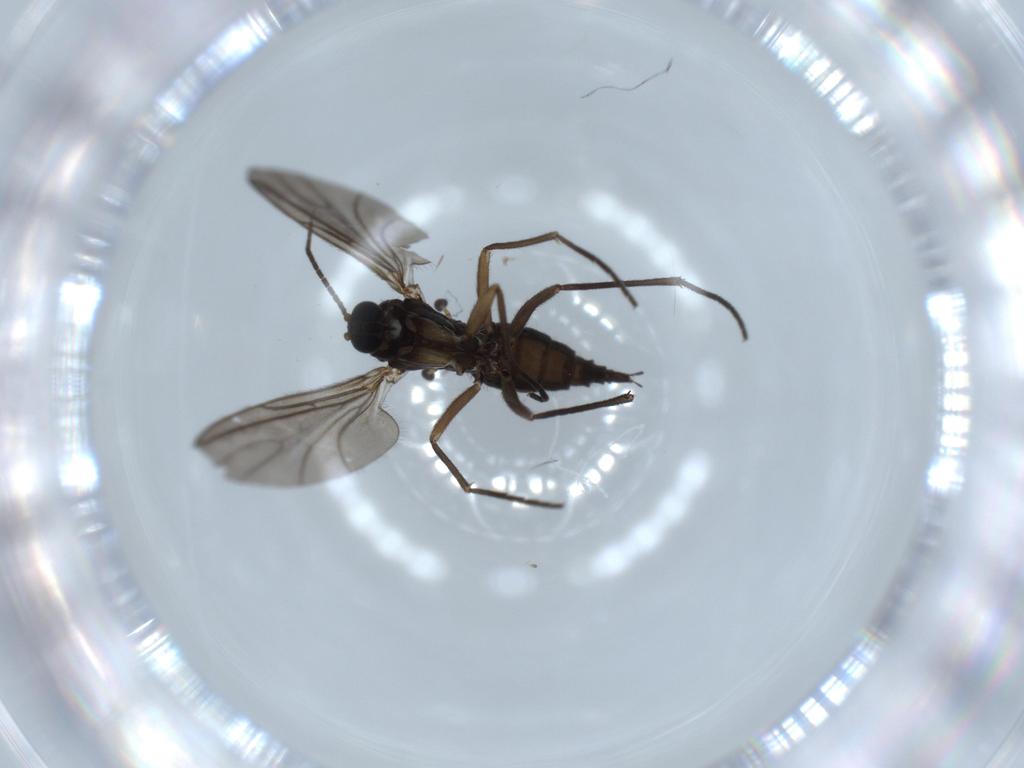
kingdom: Animalia
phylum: Arthropoda
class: Insecta
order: Diptera
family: Sciaridae
